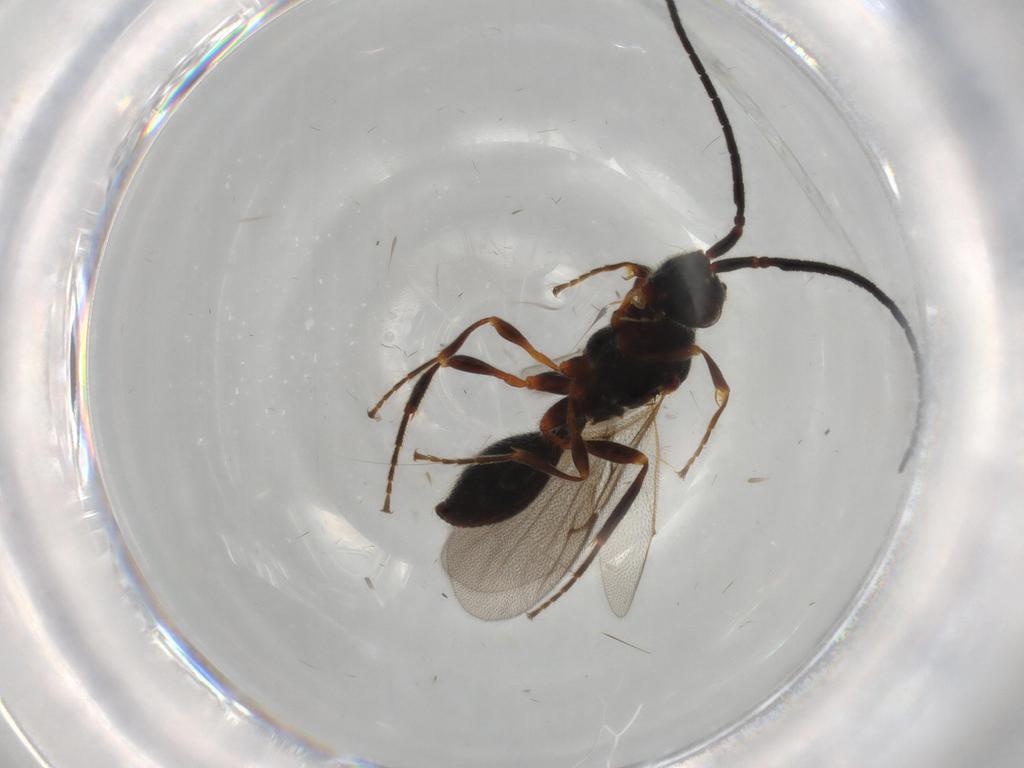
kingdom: Animalia
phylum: Arthropoda
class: Insecta
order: Hymenoptera
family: Diapriidae
